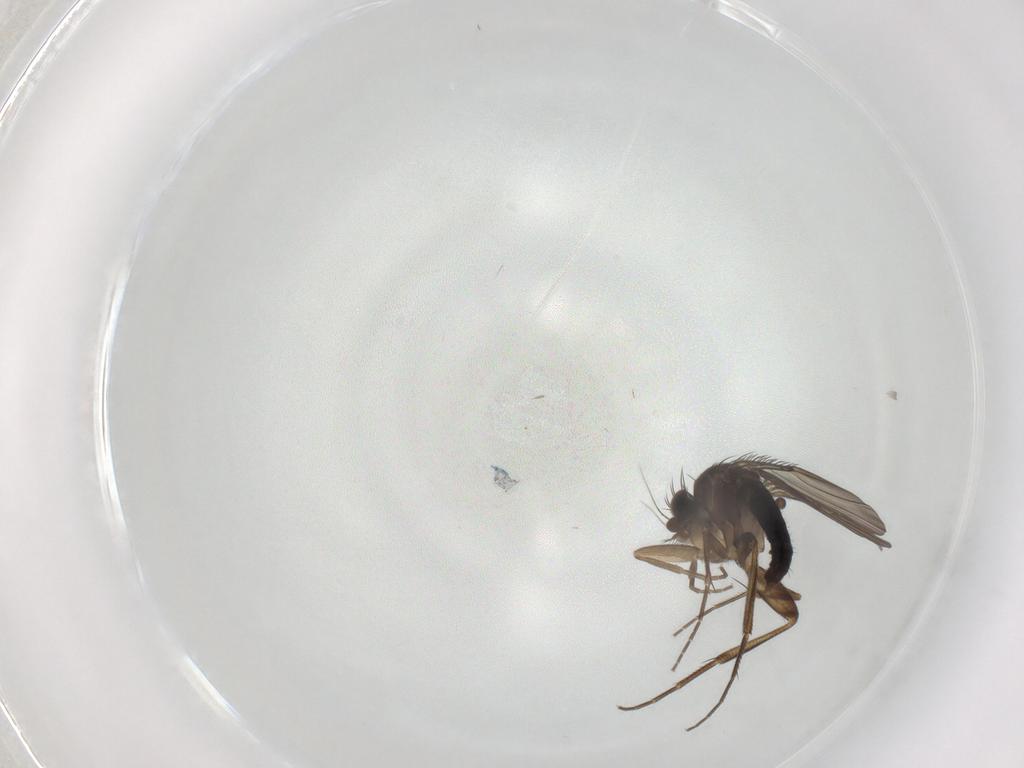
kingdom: Animalia
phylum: Arthropoda
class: Insecta
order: Diptera
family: Phoridae
